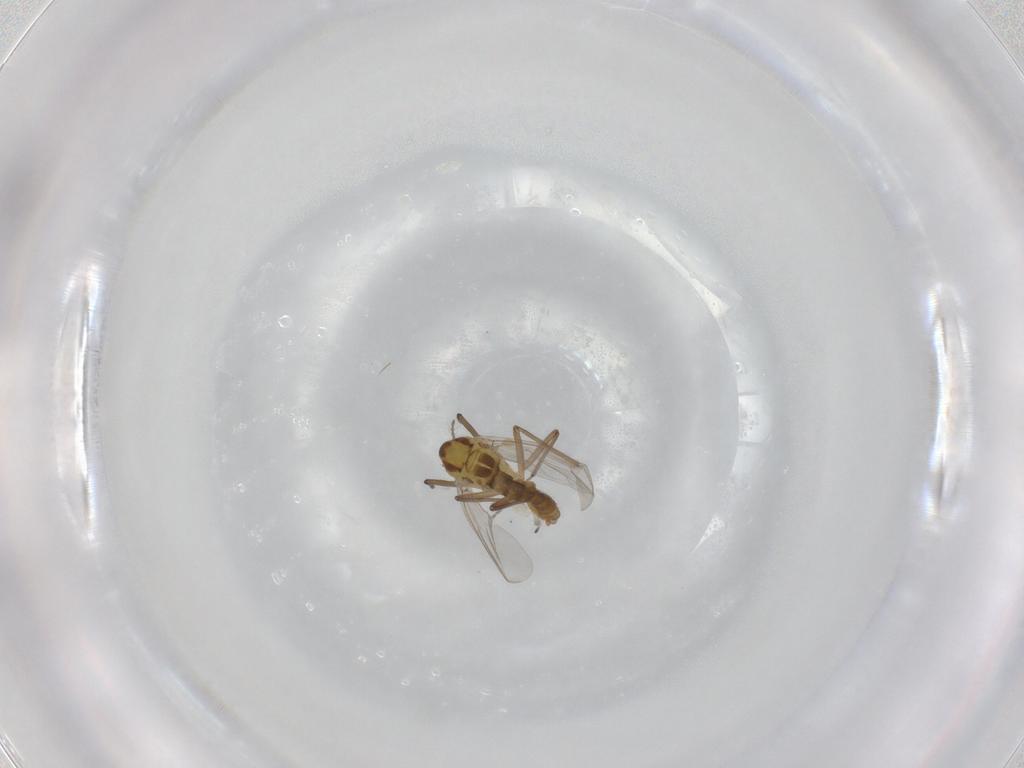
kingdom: Animalia
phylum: Arthropoda
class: Insecta
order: Diptera
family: Chironomidae
